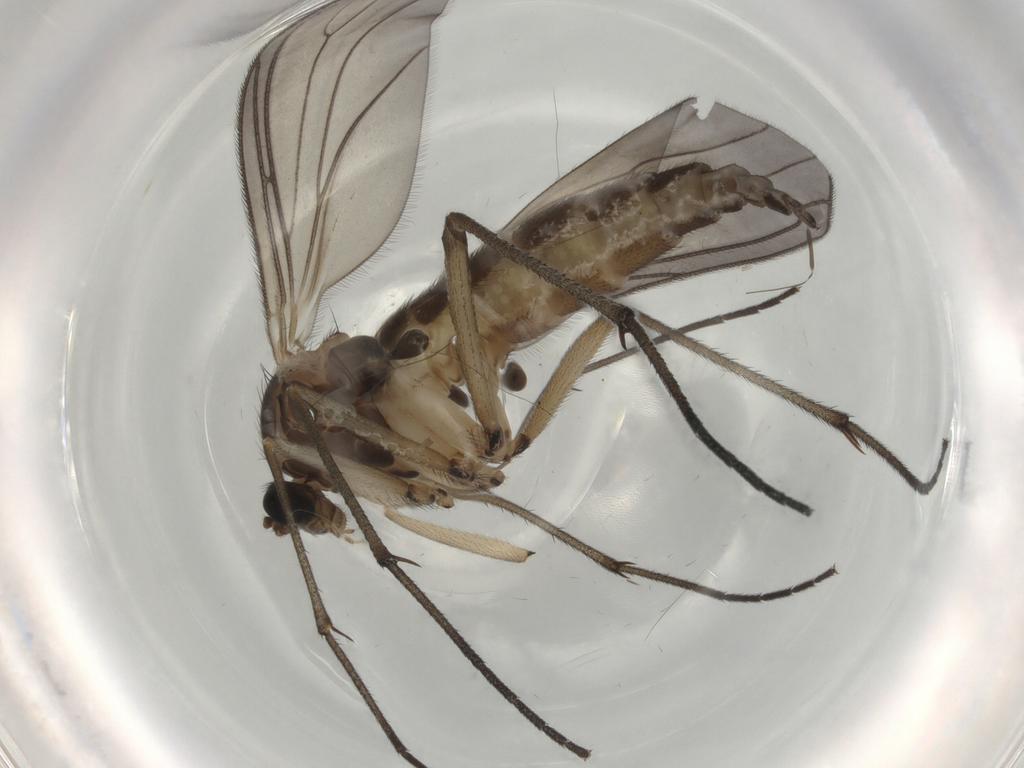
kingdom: Animalia
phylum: Arthropoda
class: Insecta
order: Diptera
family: Sciaridae
